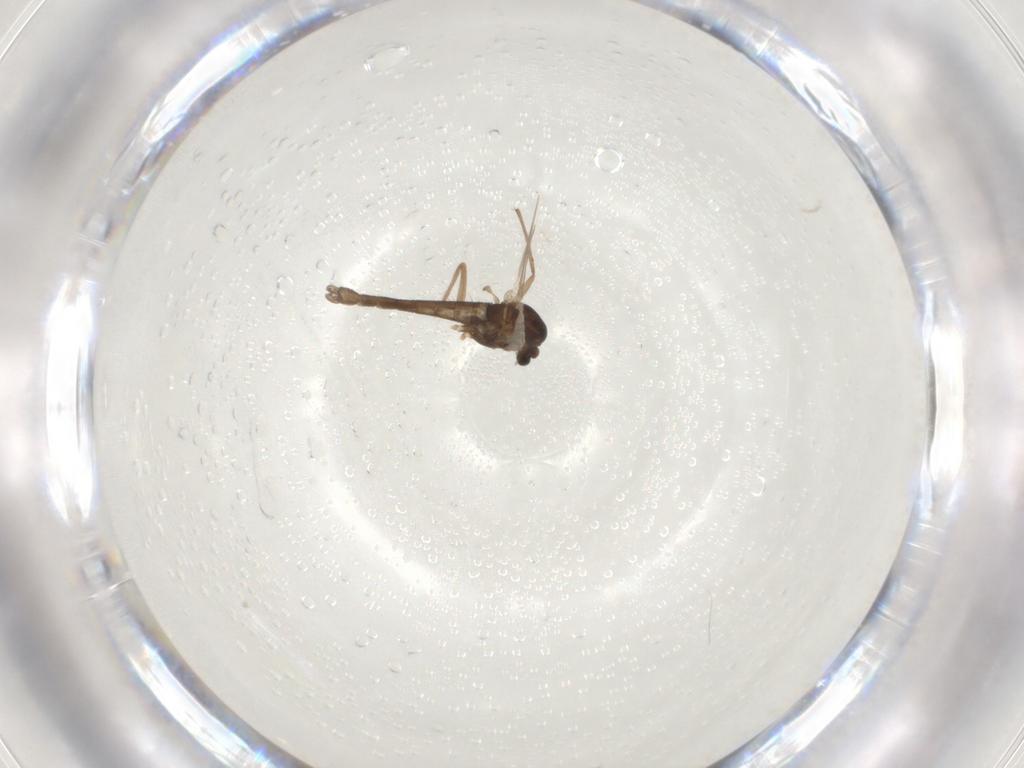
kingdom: Animalia
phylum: Arthropoda
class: Insecta
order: Diptera
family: Chironomidae
